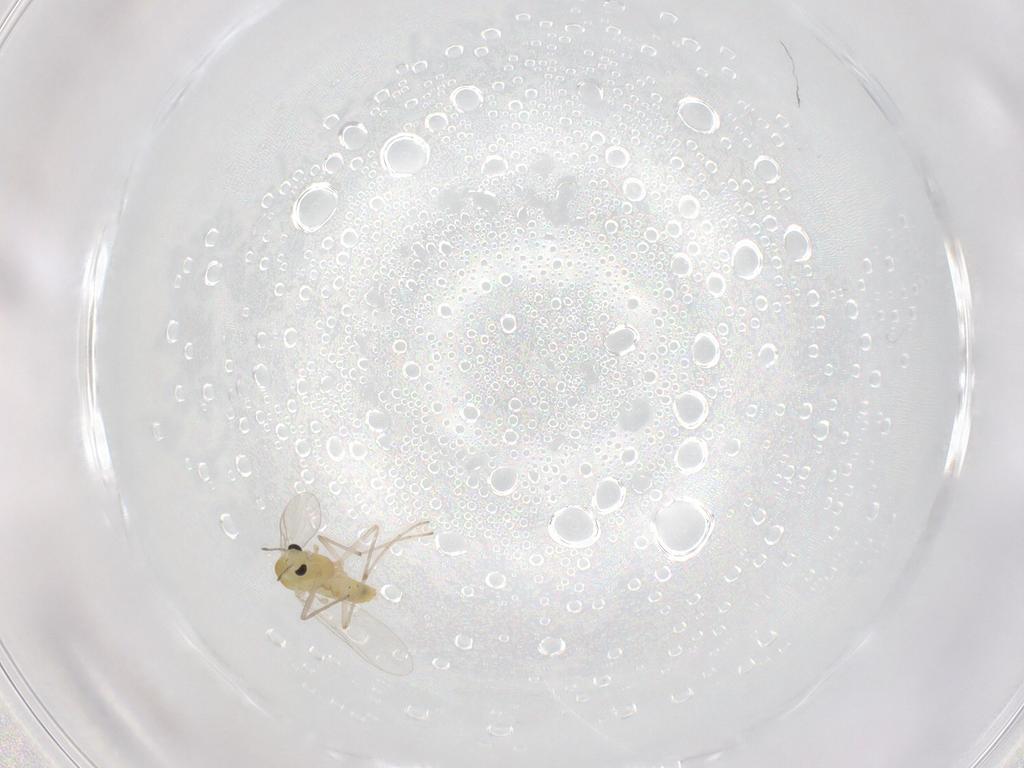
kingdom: Animalia
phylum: Arthropoda
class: Insecta
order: Diptera
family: Chironomidae
